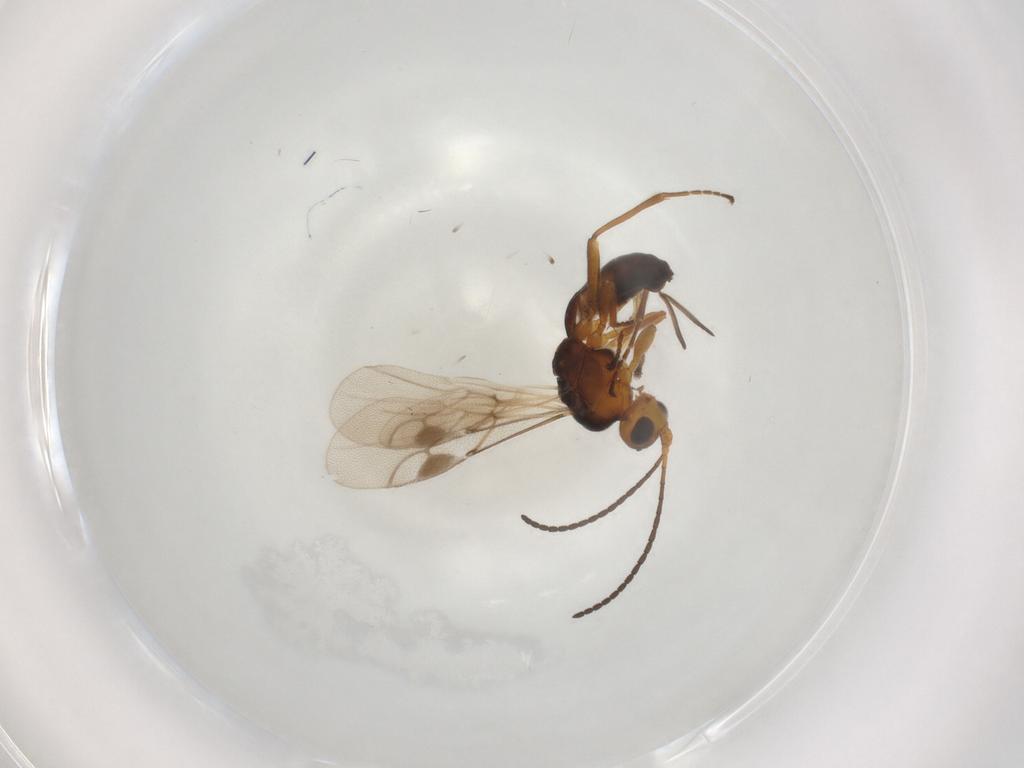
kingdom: Animalia
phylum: Arthropoda
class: Insecta
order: Hymenoptera
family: Braconidae
